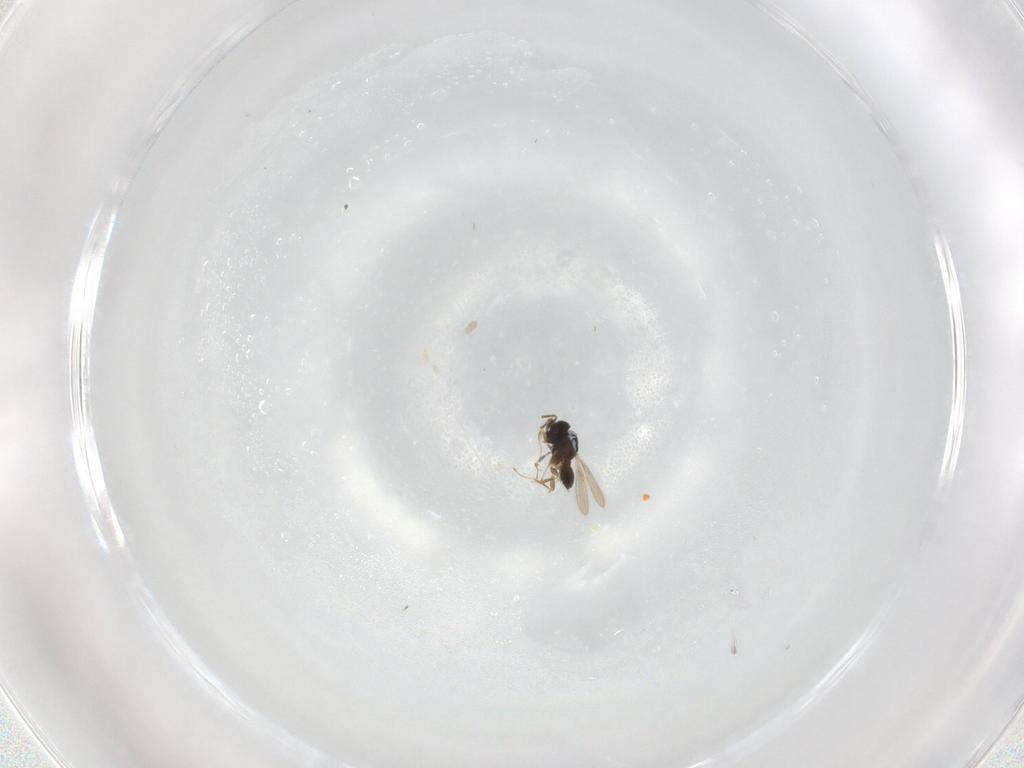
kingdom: Animalia
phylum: Arthropoda
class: Insecta
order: Hymenoptera
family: Scelionidae
